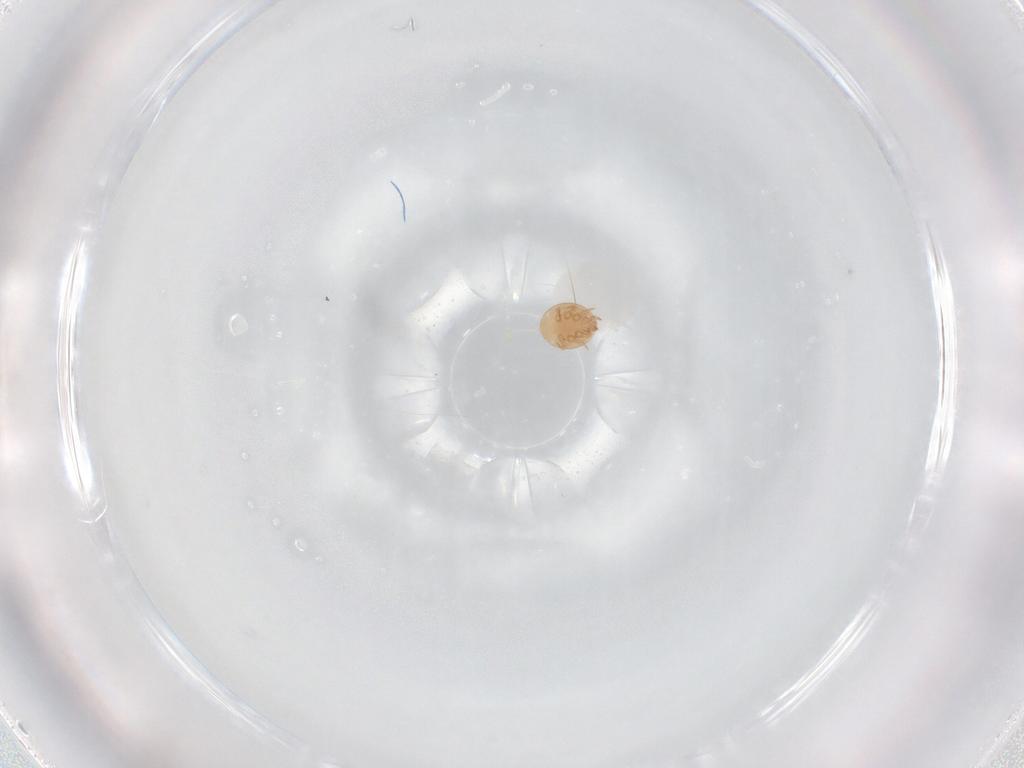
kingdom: Animalia
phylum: Arthropoda
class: Arachnida
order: Mesostigmata
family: Trematuridae
